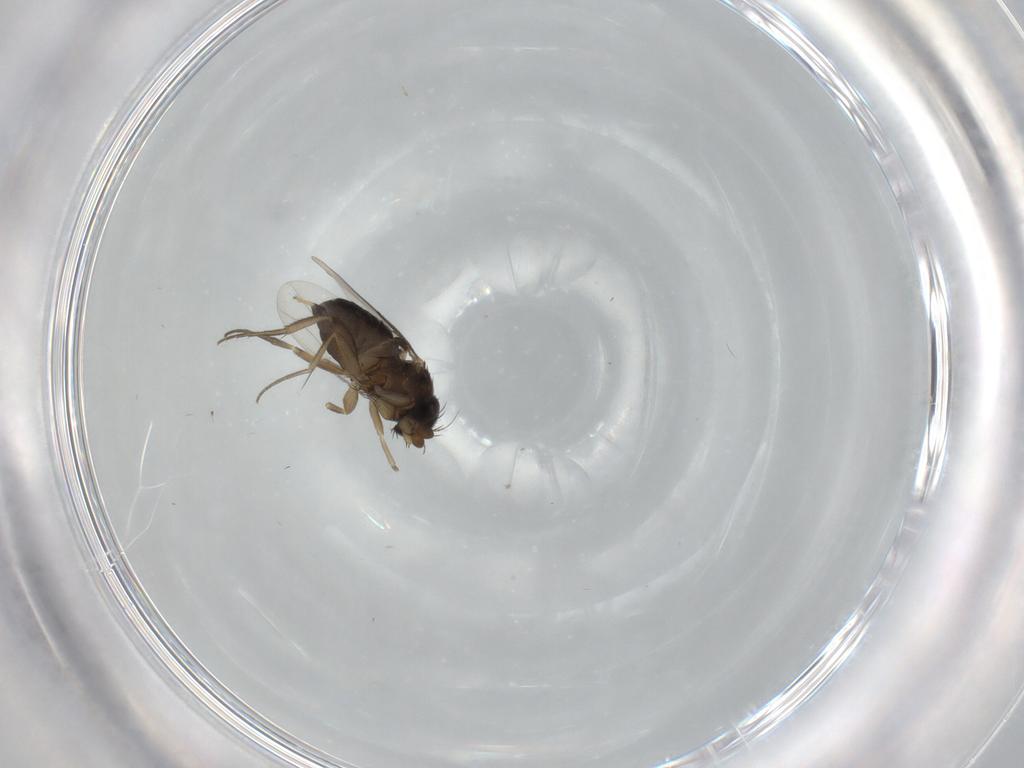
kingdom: Animalia
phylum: Arthropoda
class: Insecta
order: Diptera
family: Phoridae
